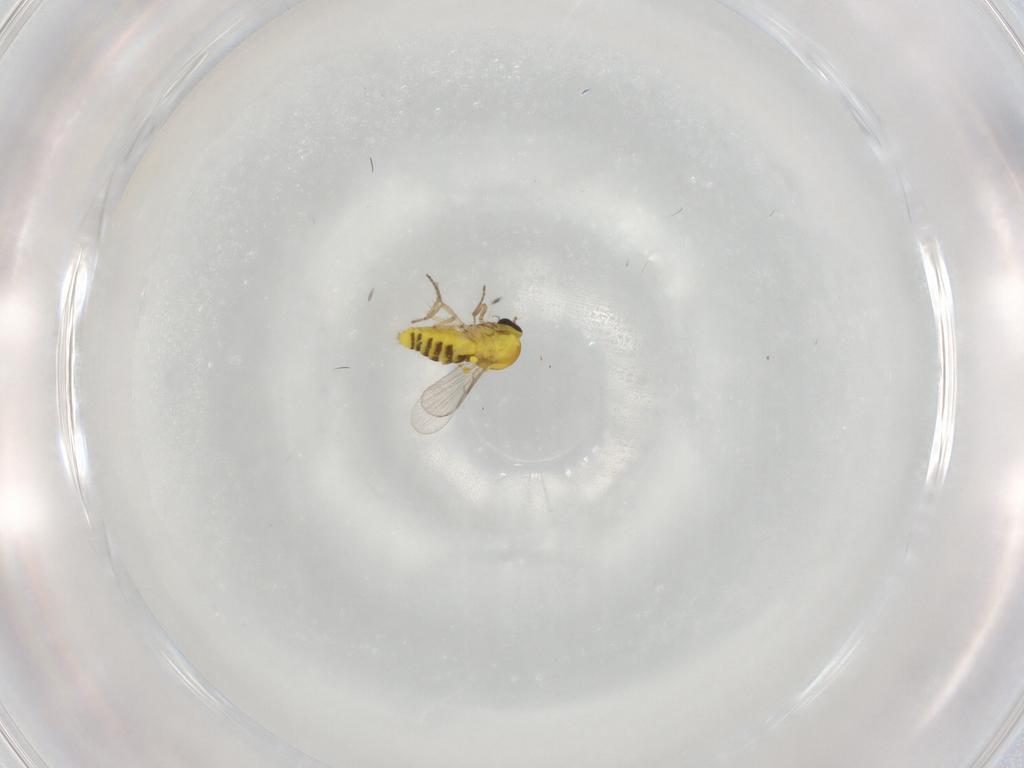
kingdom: Animalia
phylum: Arthropoda
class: Insecta
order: Diptera
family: Ceratopogonidae
